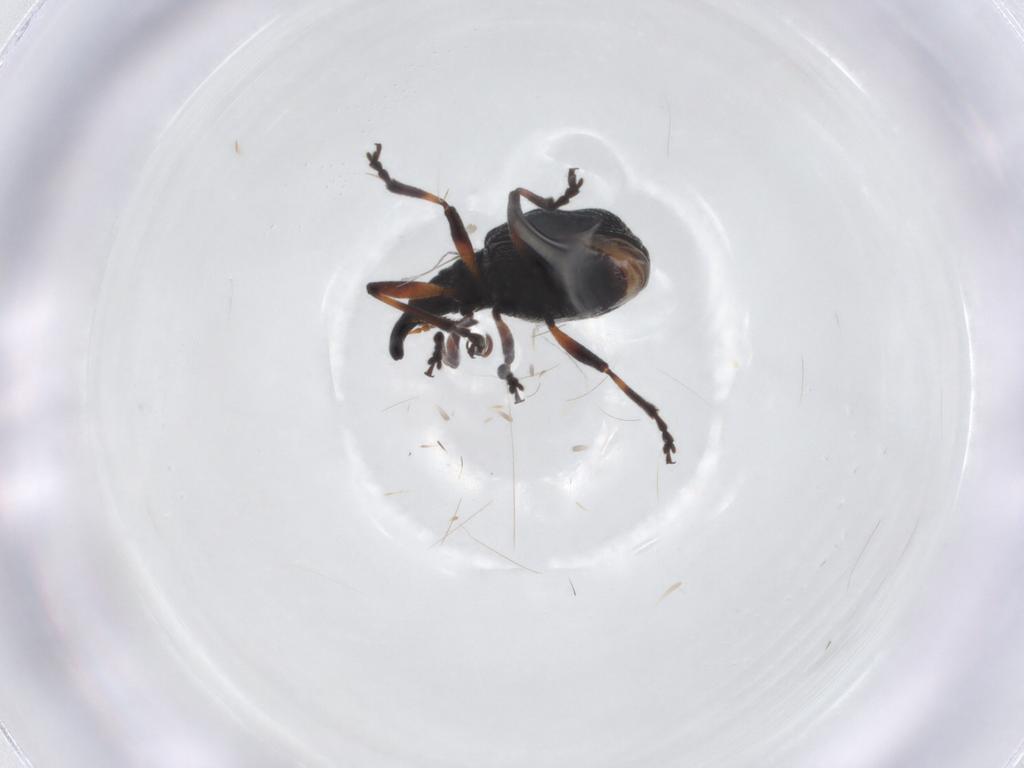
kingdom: Animalia
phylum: Arthropoda
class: Insecta
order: Coleoptera
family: Brentidae
